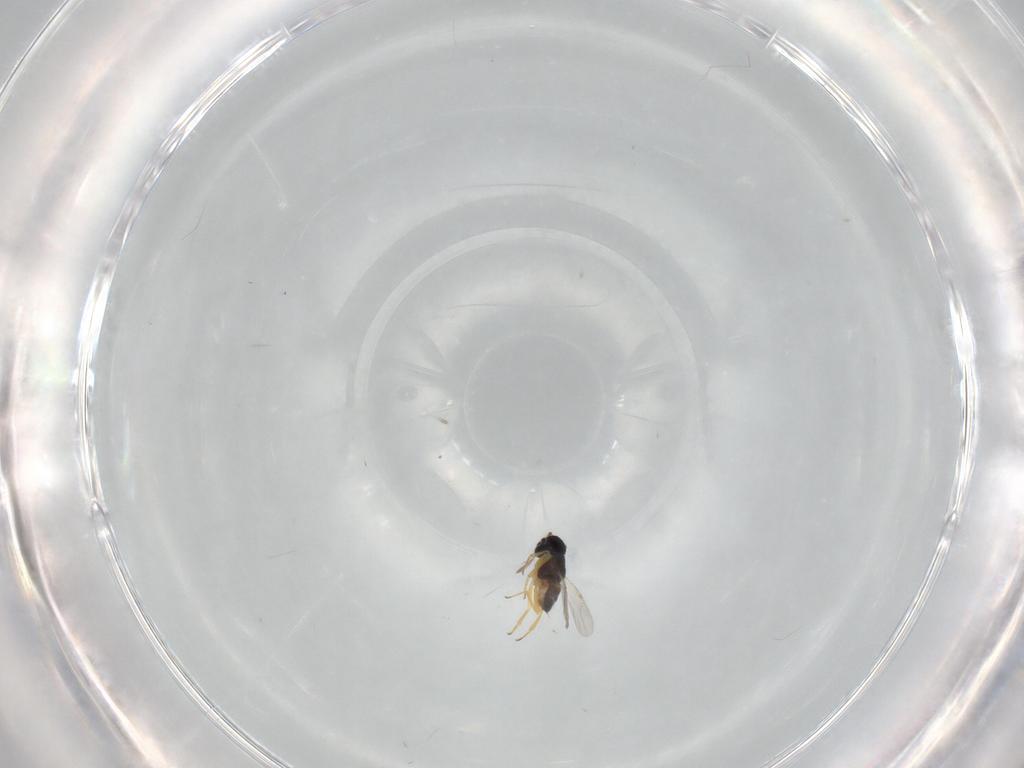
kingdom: Animalia
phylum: Arthropoda
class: Insecta
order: Hymenoptera
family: Encyrtidae
